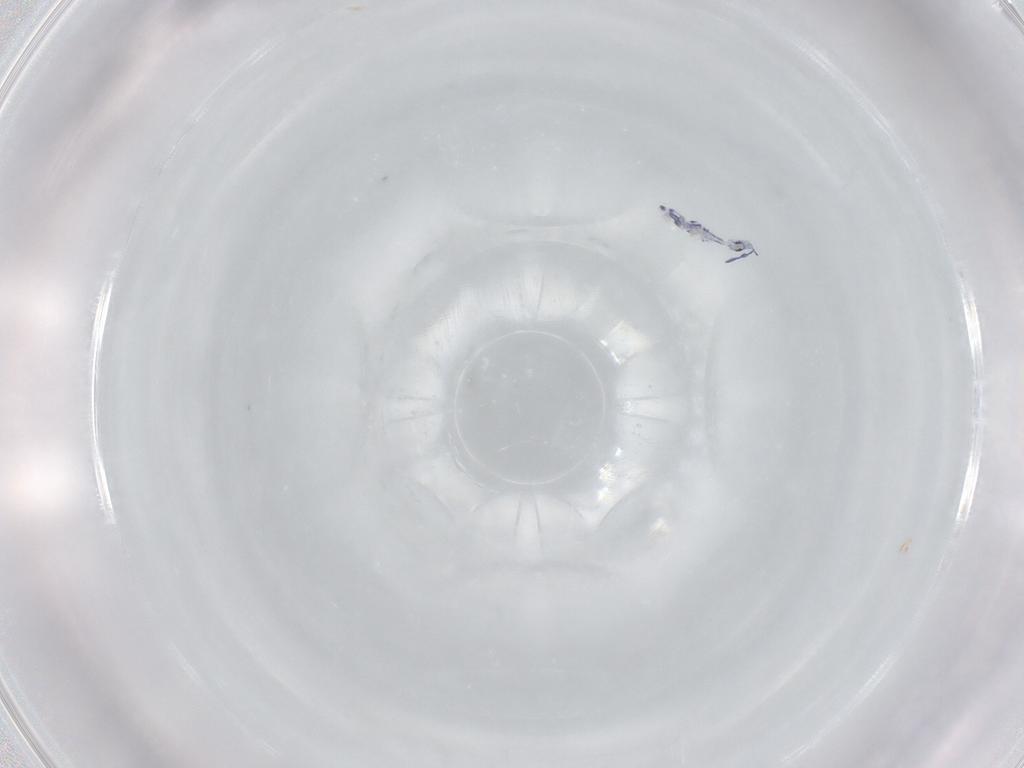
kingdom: Animalia
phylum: Arthropoda
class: Collembola
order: Entomobryomorpha
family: Entomobryidae
